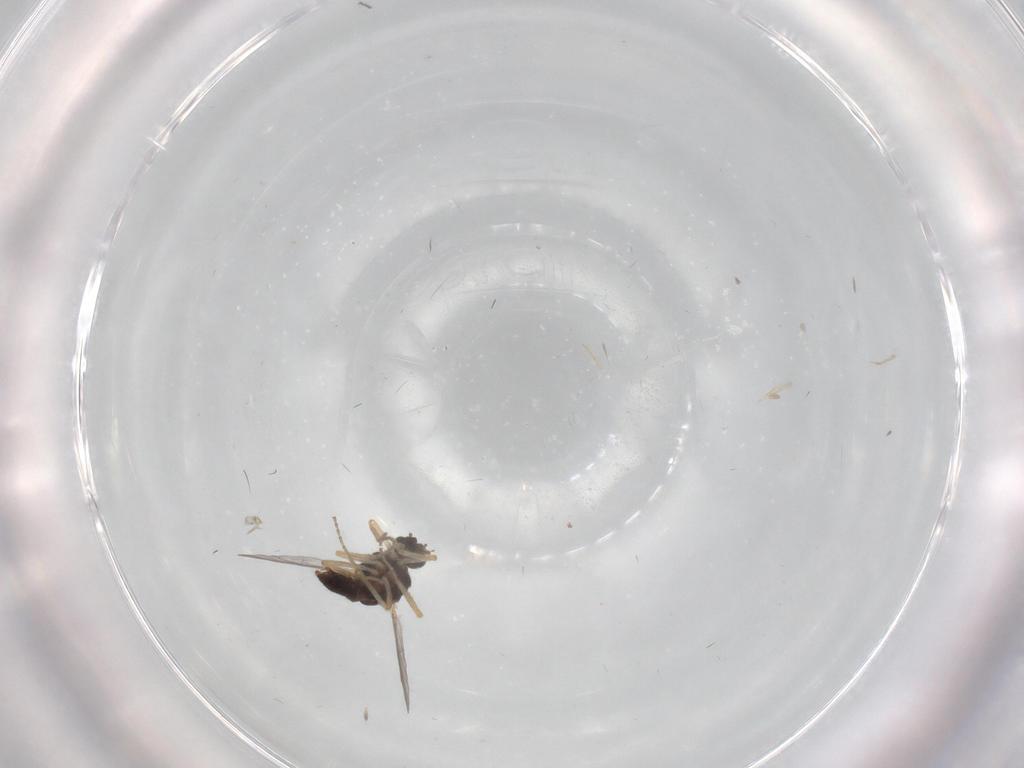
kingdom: Animalia
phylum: Arthropoda
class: Insecta
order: Diptera
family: Ceratopogonidae
